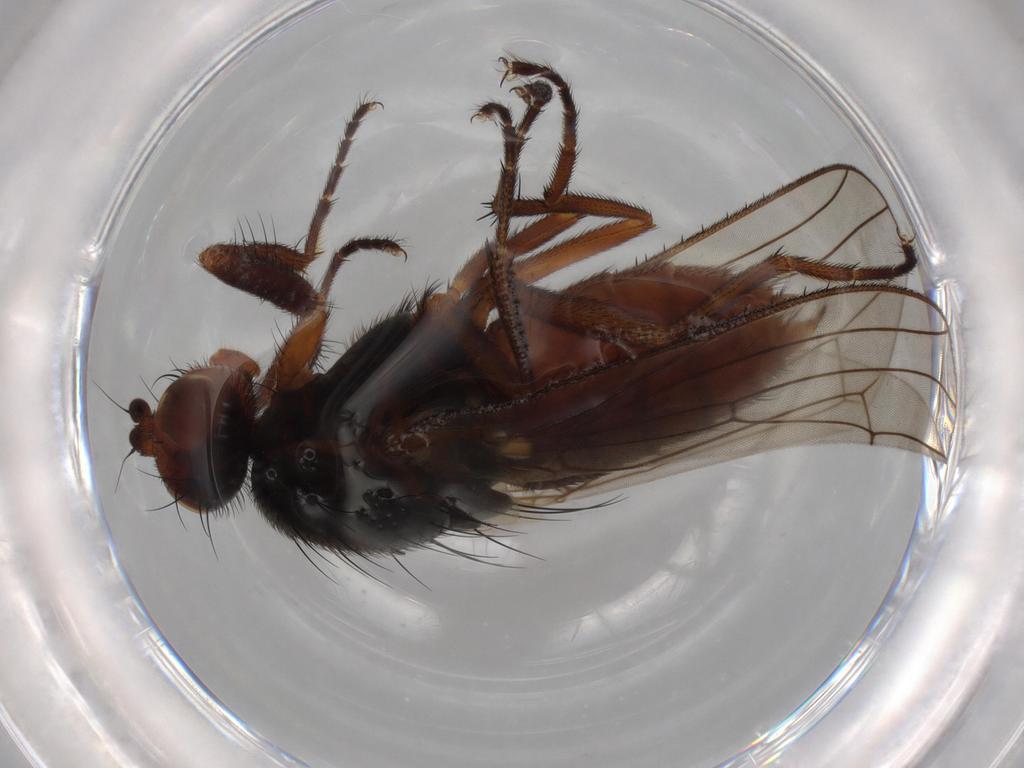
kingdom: Animalia
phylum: Arthropoda
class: Insecta
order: Diptera
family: Heleomyzidae
